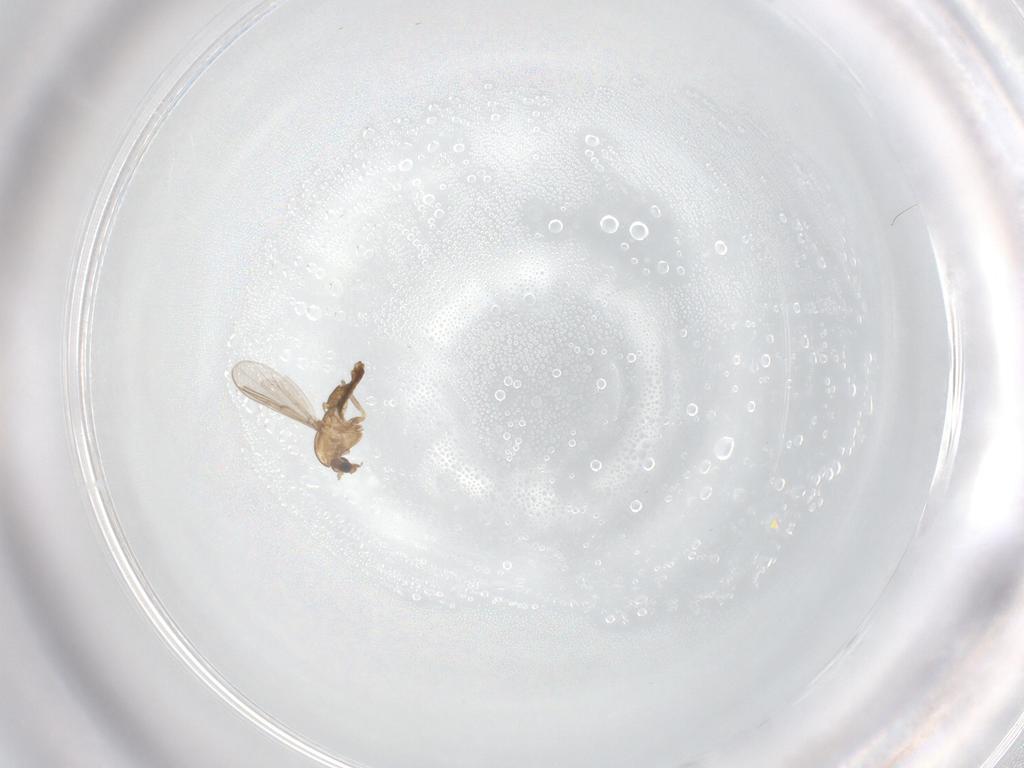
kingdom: Animalia
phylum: Arthropoda
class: Insecta
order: Diptera
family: Chironomidae
